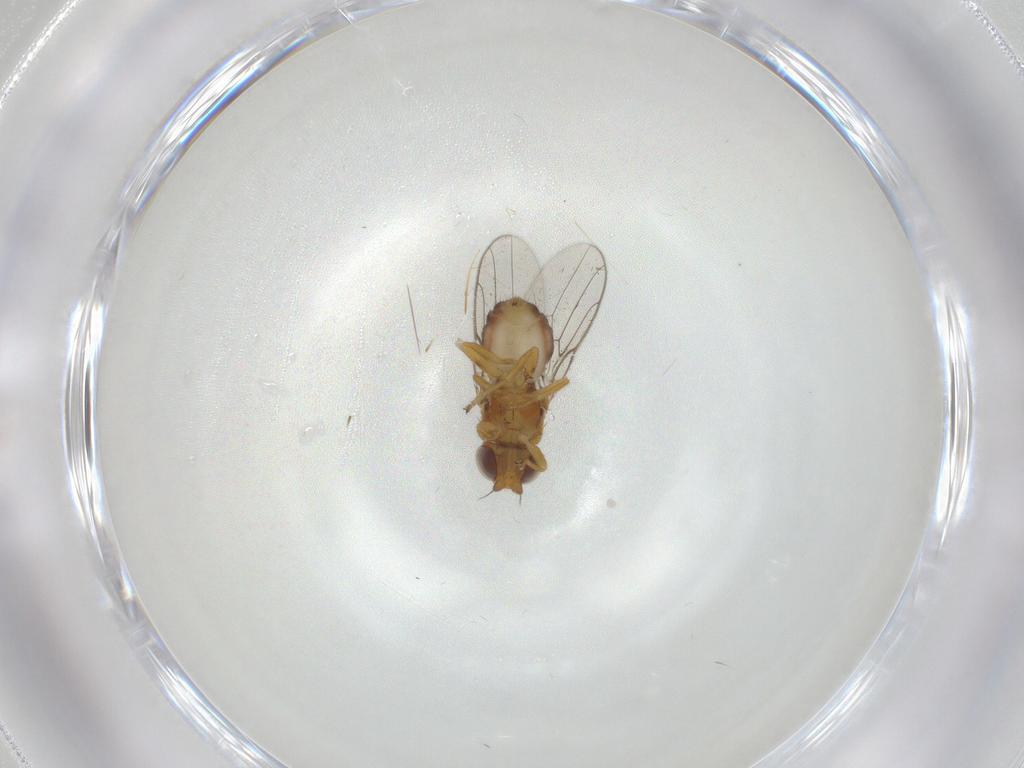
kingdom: Animalia
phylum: Arthropoda
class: Insecta
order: Diptera
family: Chloropidae
